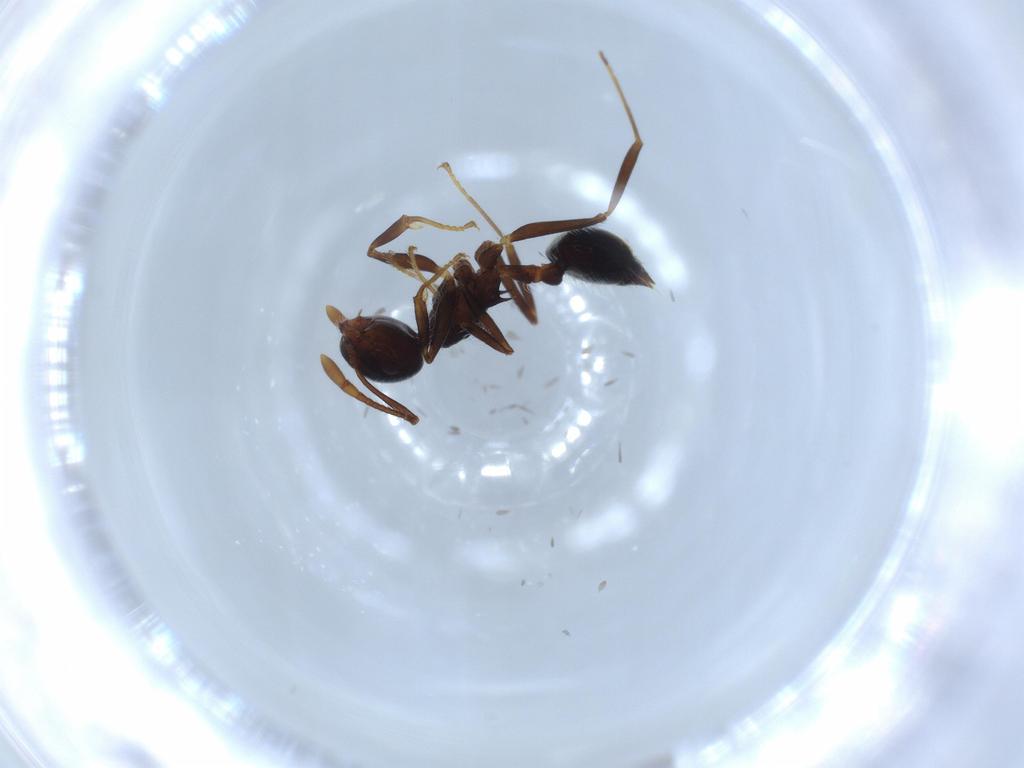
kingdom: Animalia
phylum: Arthropoda
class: Insecta
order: Hymenoptera
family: Formicidae
